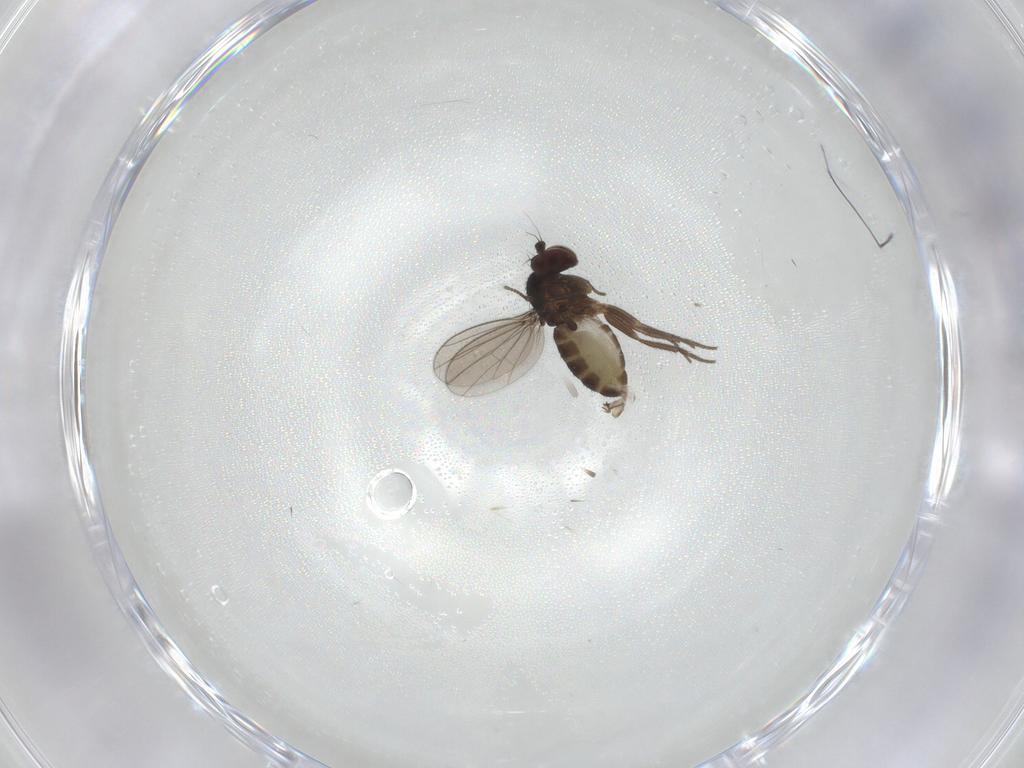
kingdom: Animalia
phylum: Arthropoda
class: Insecta
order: Diptera
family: Dolichopodidae
